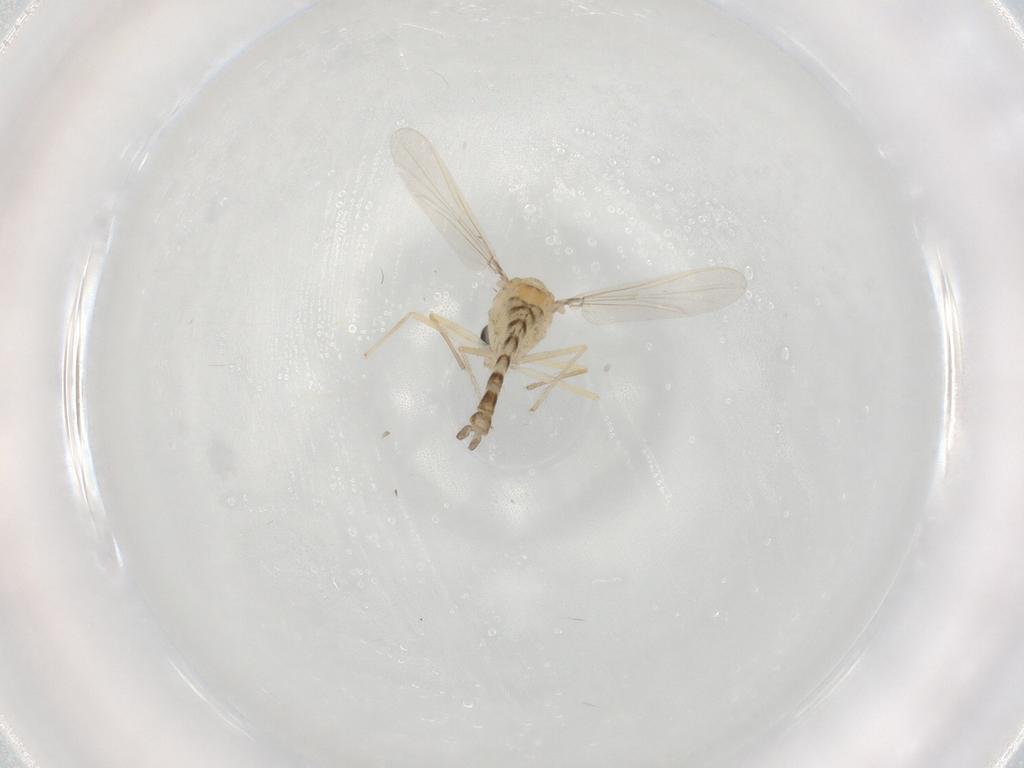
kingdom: Animalia
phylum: Arthropoda
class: Insecta
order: Diptera
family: Chironomidae
